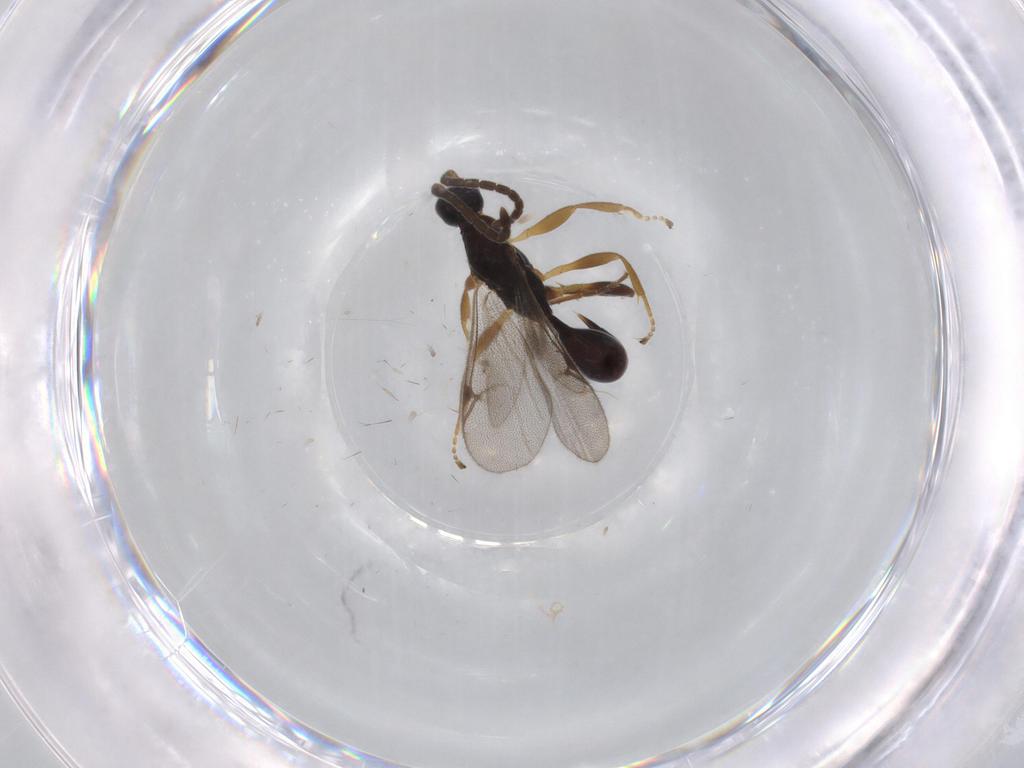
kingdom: Animalia
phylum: Arthropoda
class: Insecta
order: Hymenoptera
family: Proctotrupidae
